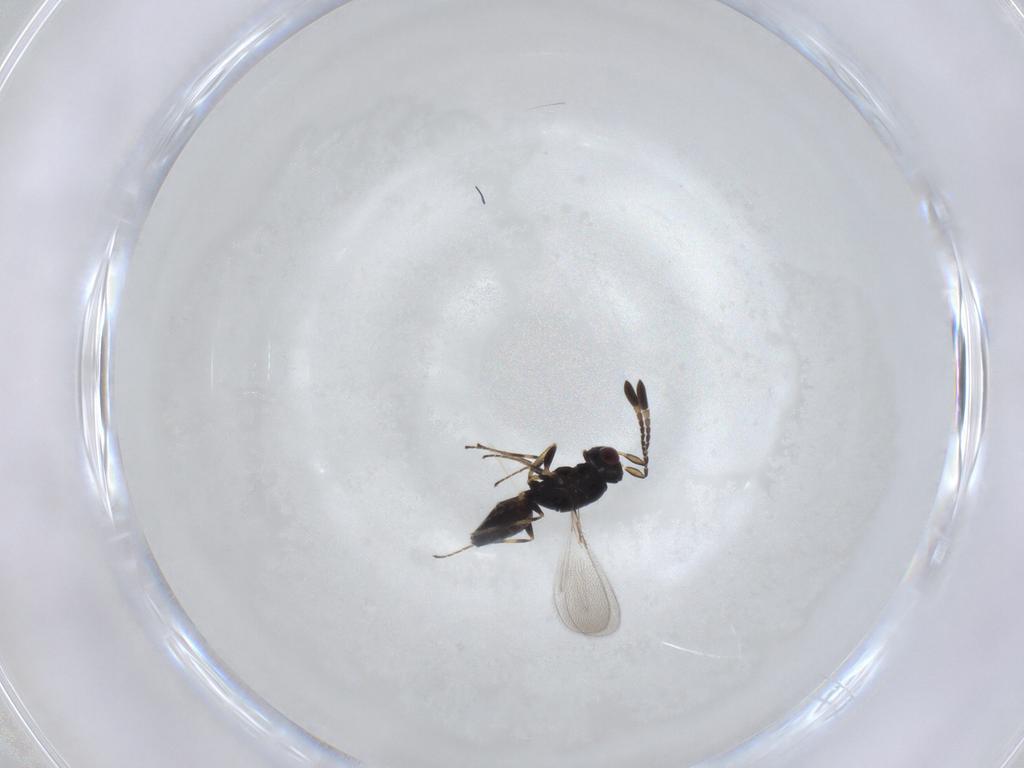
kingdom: Animalia
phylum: Arthropoda
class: Insecta
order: Hymenoptera
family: Mymaridae
